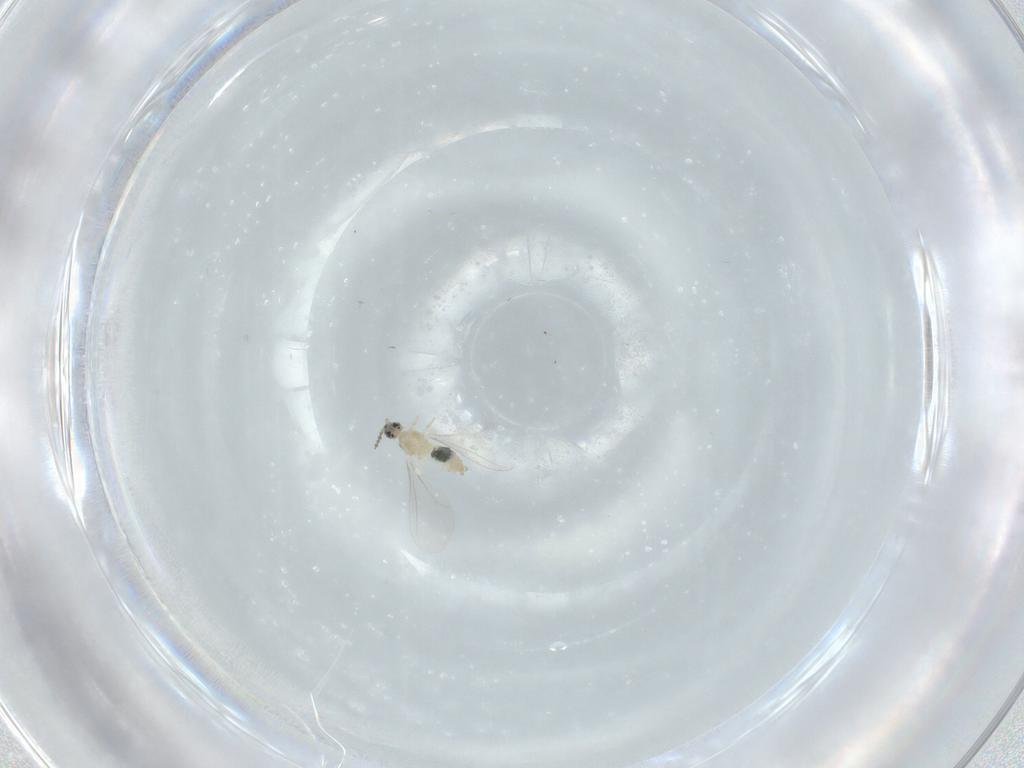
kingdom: Animalia
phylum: Arthropoda
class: Insecta
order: Diptera
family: Cecidomyiidae
